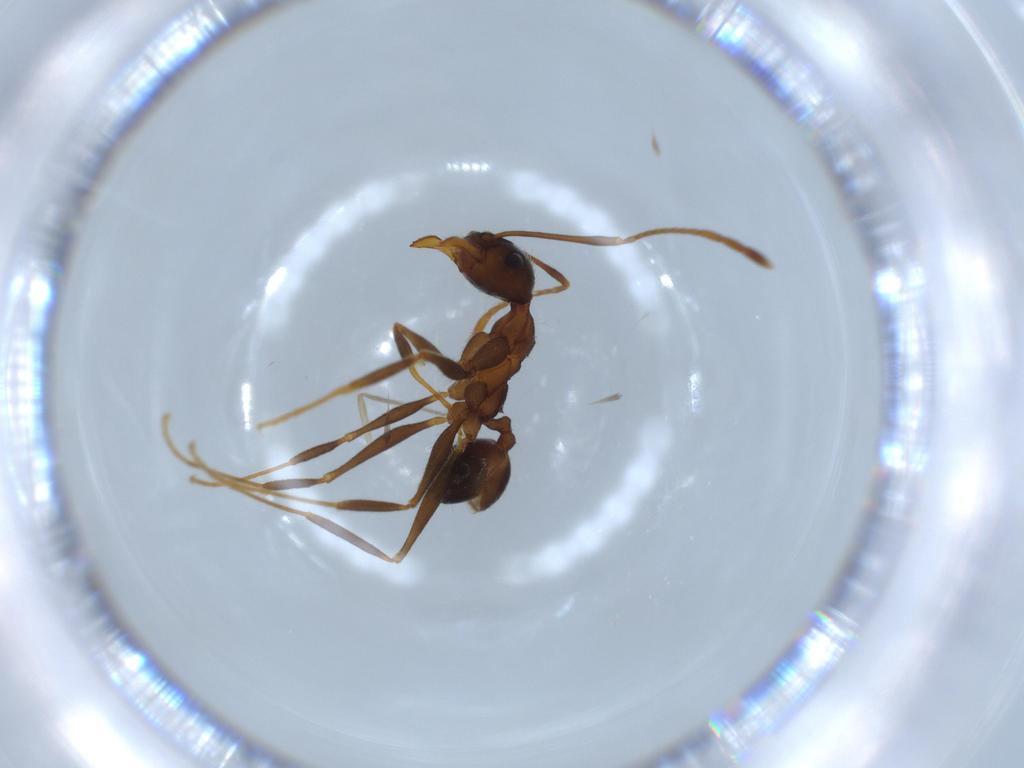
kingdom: Animalia
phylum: Arthropoda
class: Insecta
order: Hymenoptera
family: Formicidae
